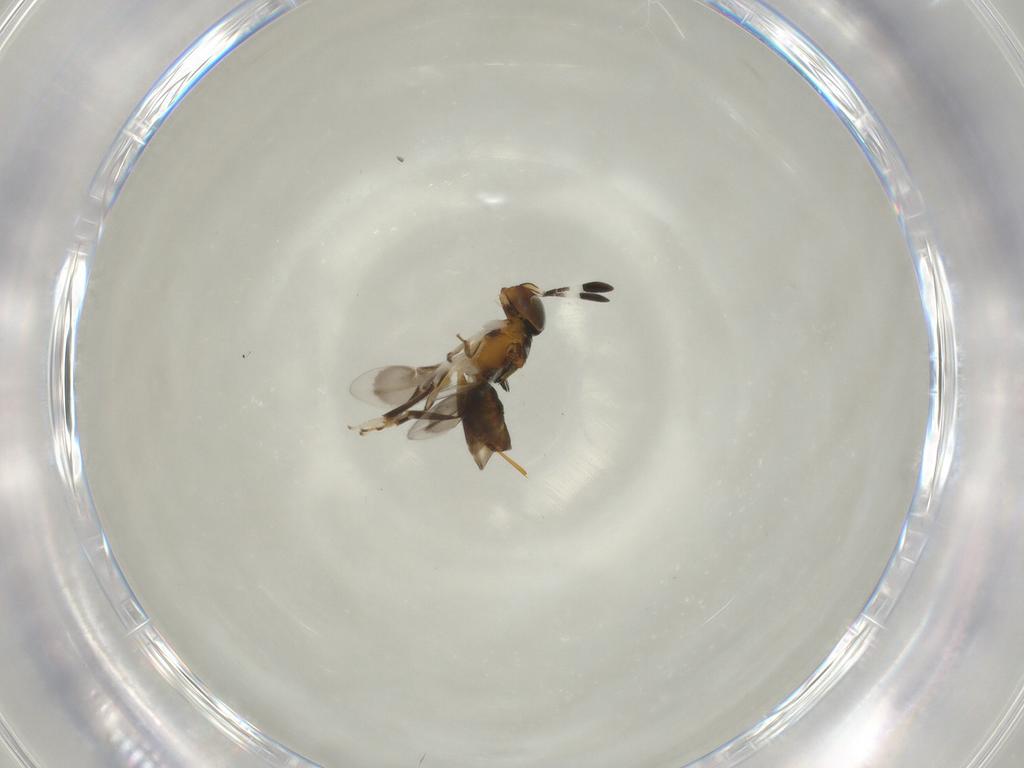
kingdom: Animalia
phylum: Arthropoda
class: Insecta
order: Hymenoptera
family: Encyrtidae
